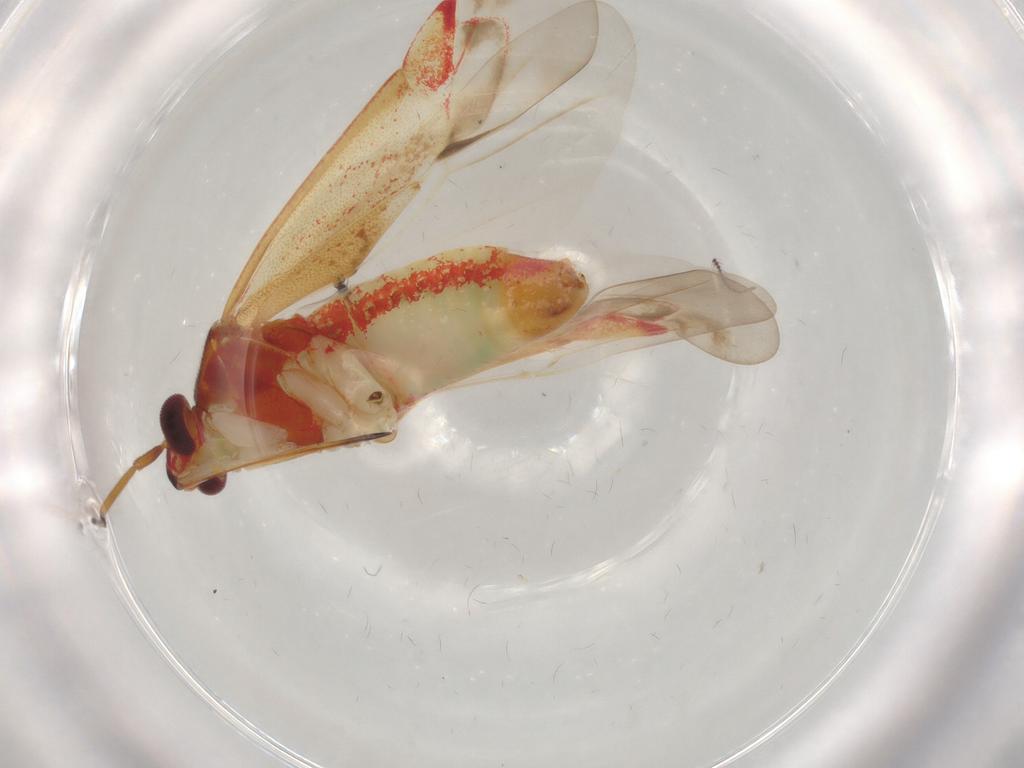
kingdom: Animalia
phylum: Arthropoda
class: Insecta
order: Hemiptera
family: Miridae
